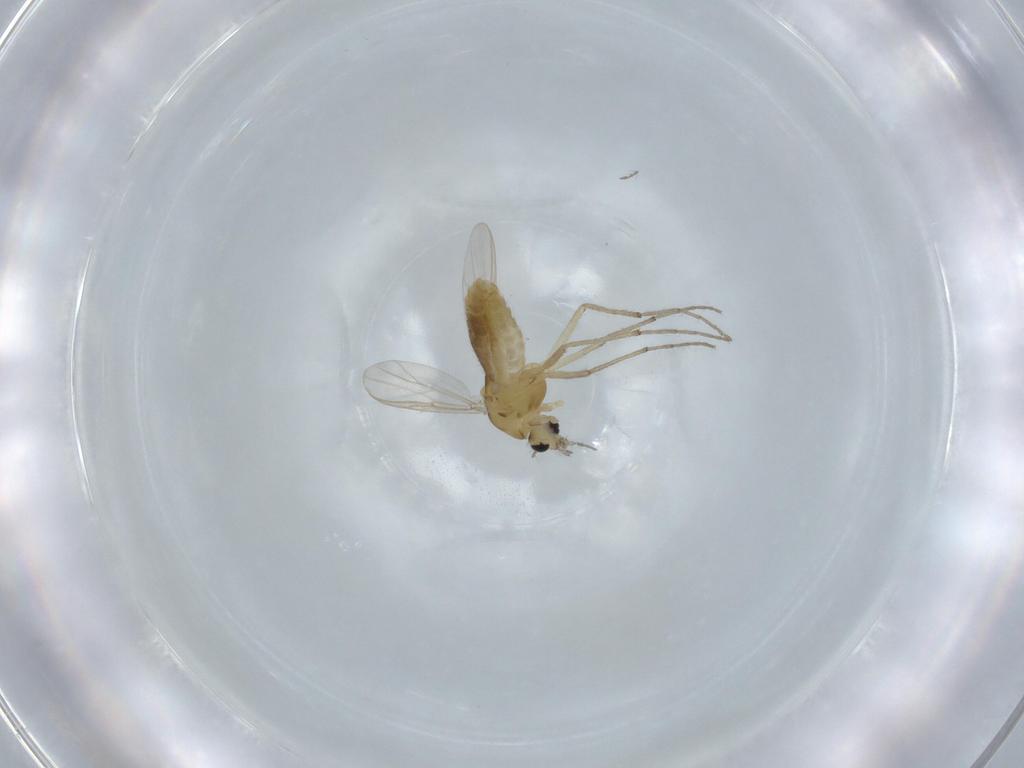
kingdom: Animalia
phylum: Arthropoda
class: Insecta
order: Diptera
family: Chironomidae
